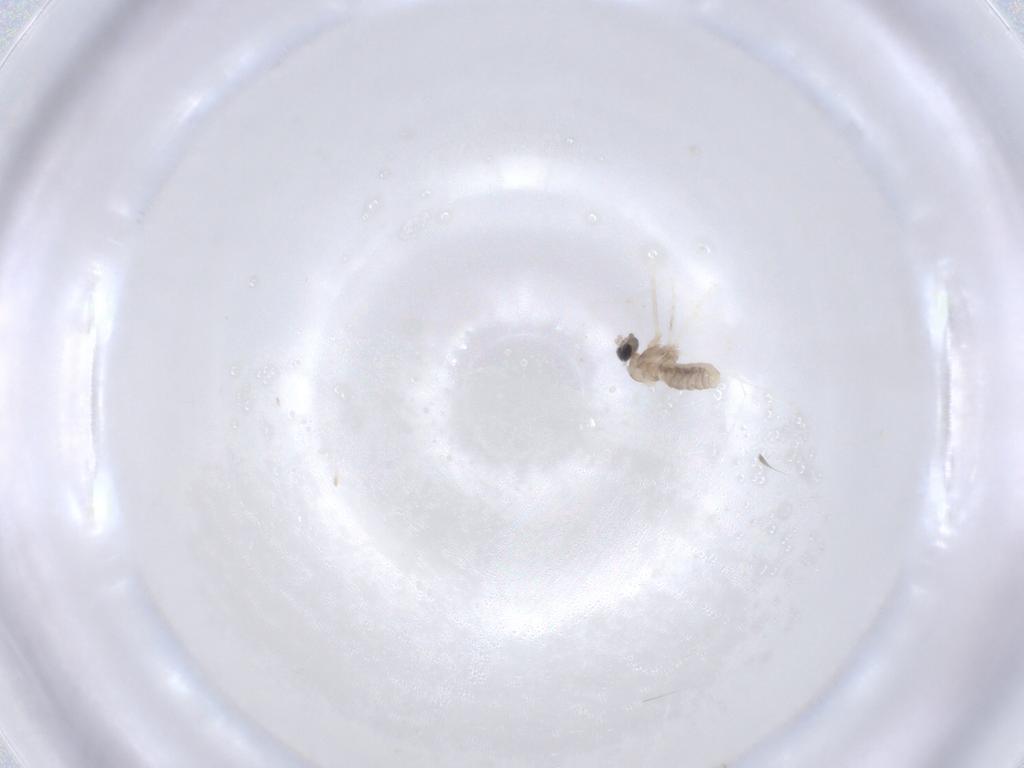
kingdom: Animalia
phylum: Arthropoda
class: Insecta
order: Diptera
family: Cecidomyiidae
